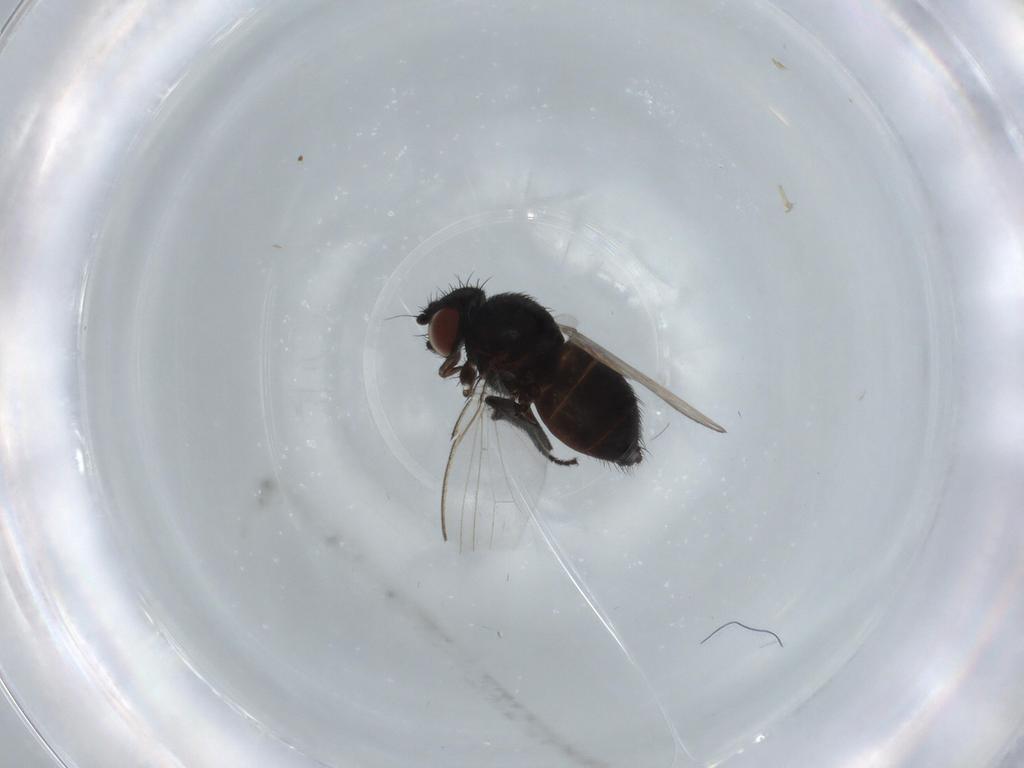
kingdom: Animalia
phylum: Arthropoda
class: Insecta
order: Diptera
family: Milichiidae
